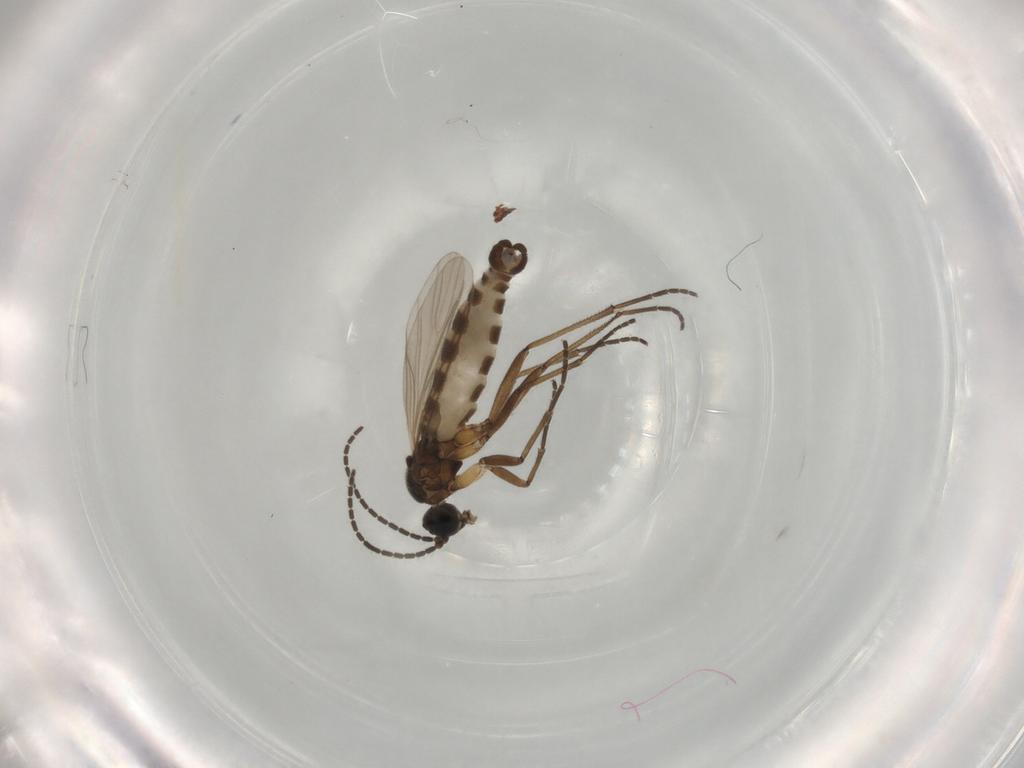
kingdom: Animalia
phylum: Arthropoda
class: Insecta
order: Diptera
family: Sciaridae
